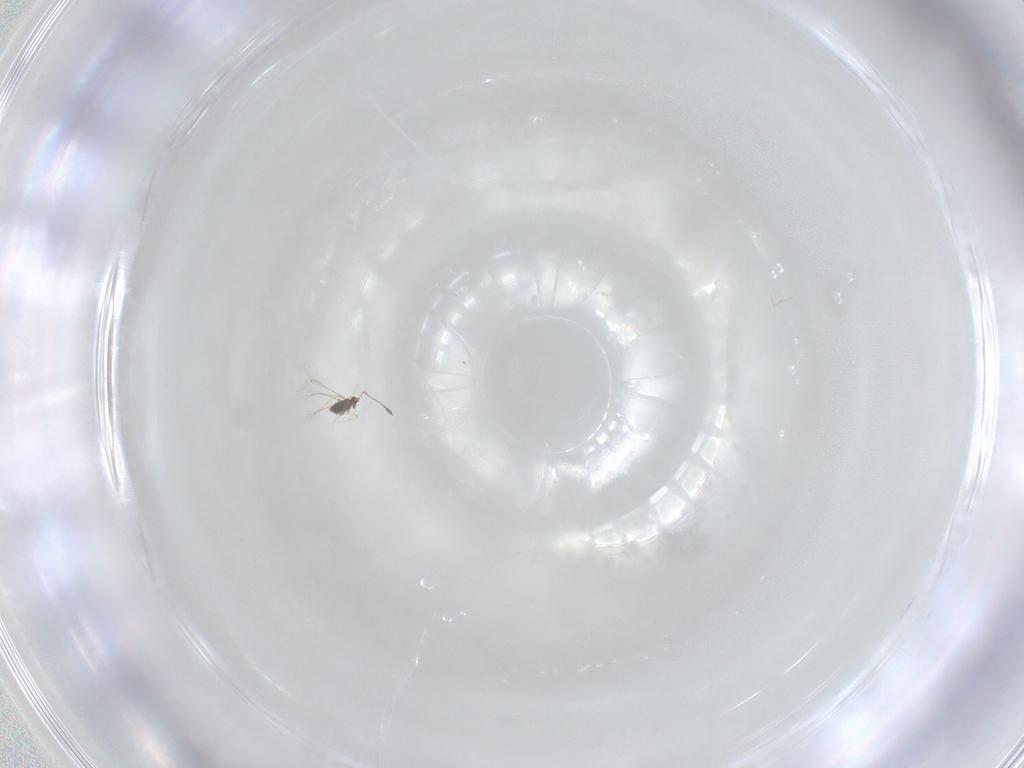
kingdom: Animalia
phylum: Arthropoda
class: Collembola
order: Symphypleona
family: Katiannidae
